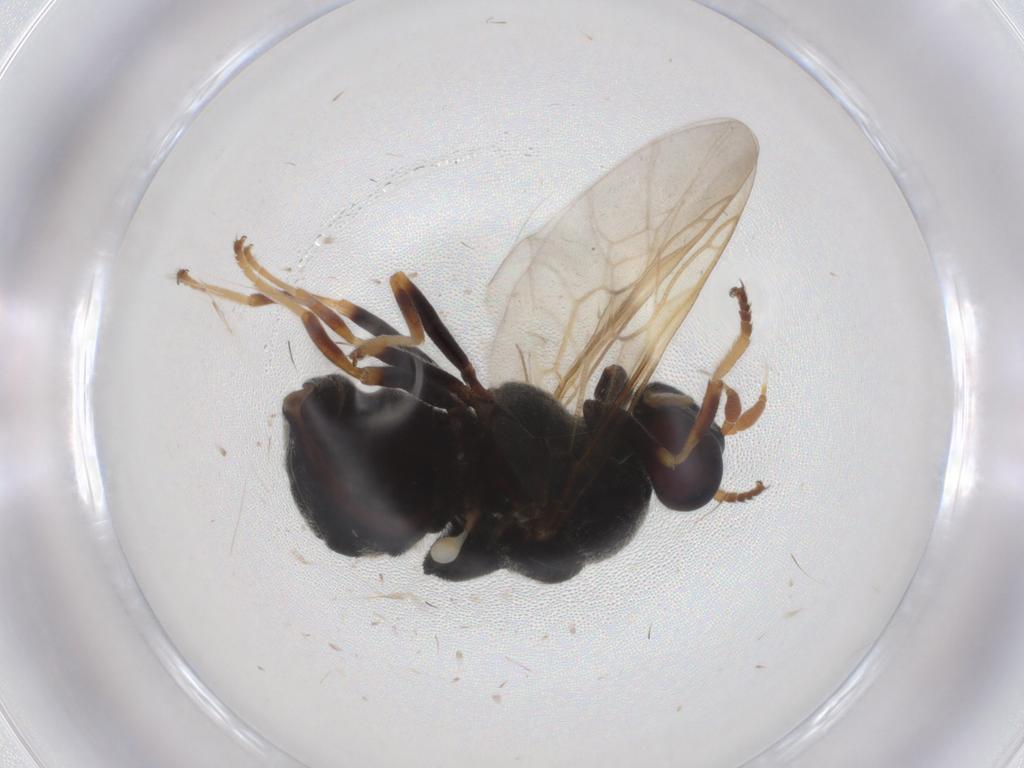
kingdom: Animalia
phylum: Arthropoda
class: Insecta
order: Diptera
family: Stratiomyidae
